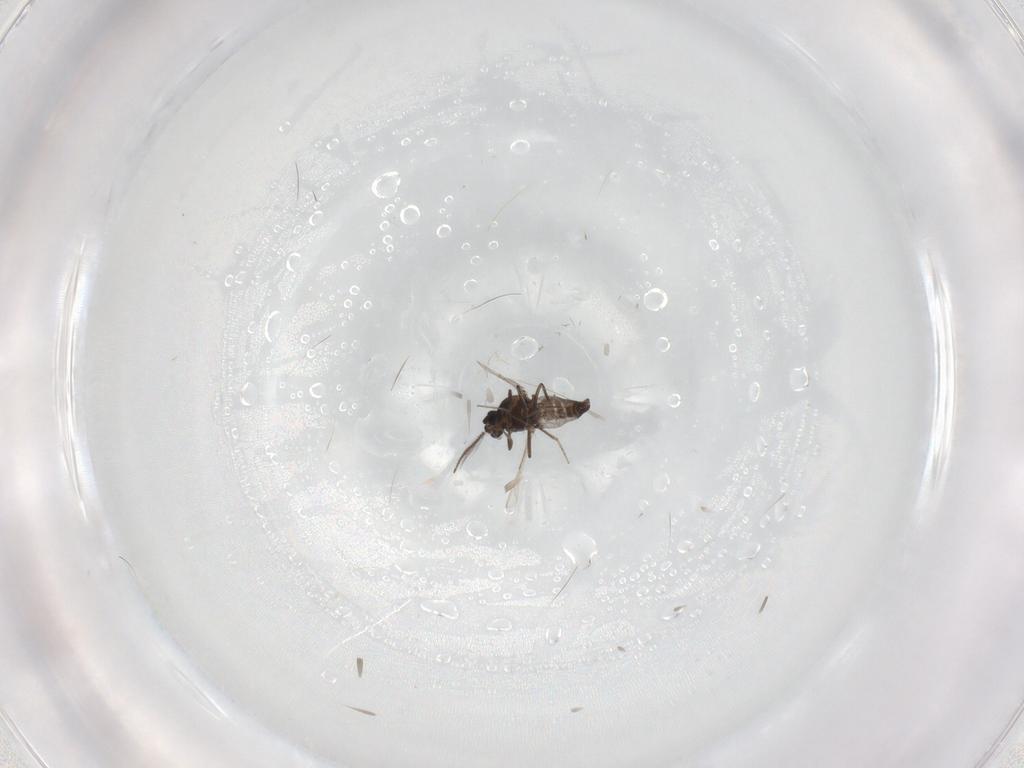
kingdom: Animalia
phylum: Arthropoda
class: Insecta
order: Diptera
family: Ceratopogonidae
